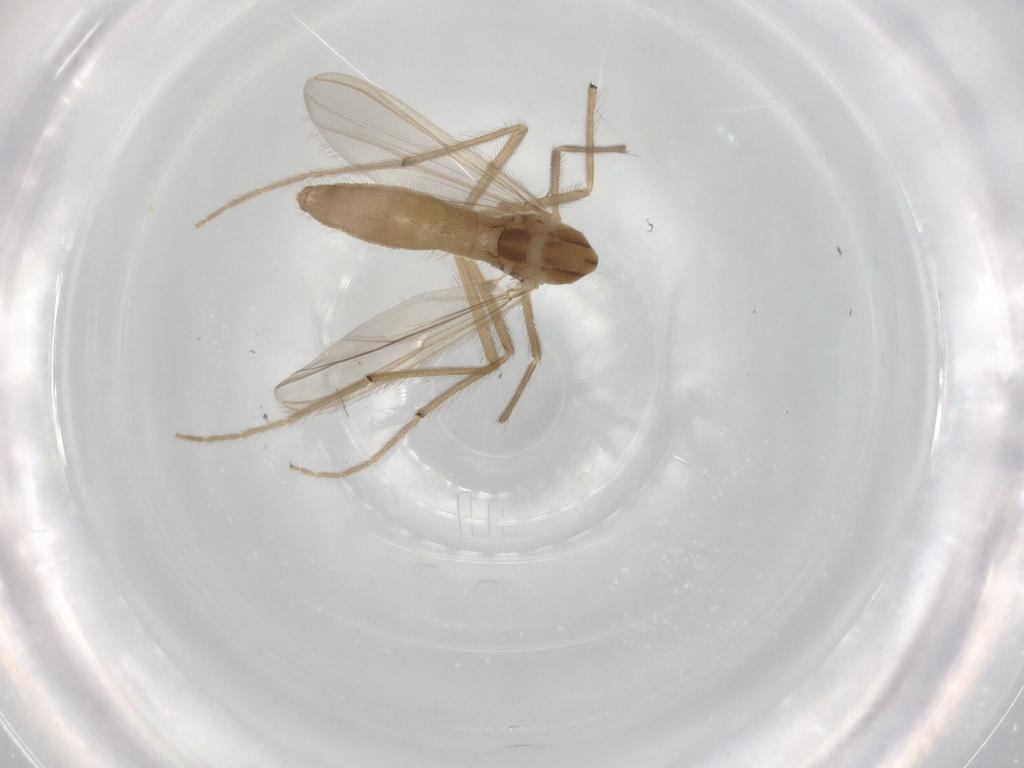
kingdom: Animalia
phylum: Arthropoda
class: Insecta
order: Diptera
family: Chironomidae
